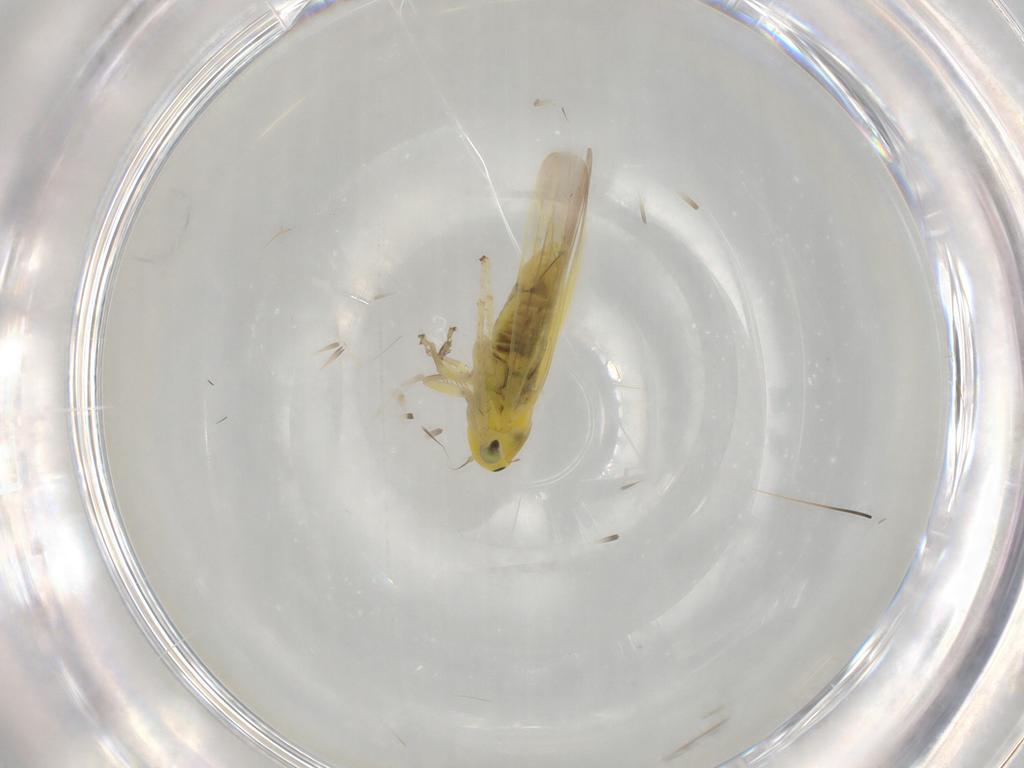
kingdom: Animalia
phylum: Arthropoda
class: Insecta
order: Hemiptera
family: Cicadellidae
